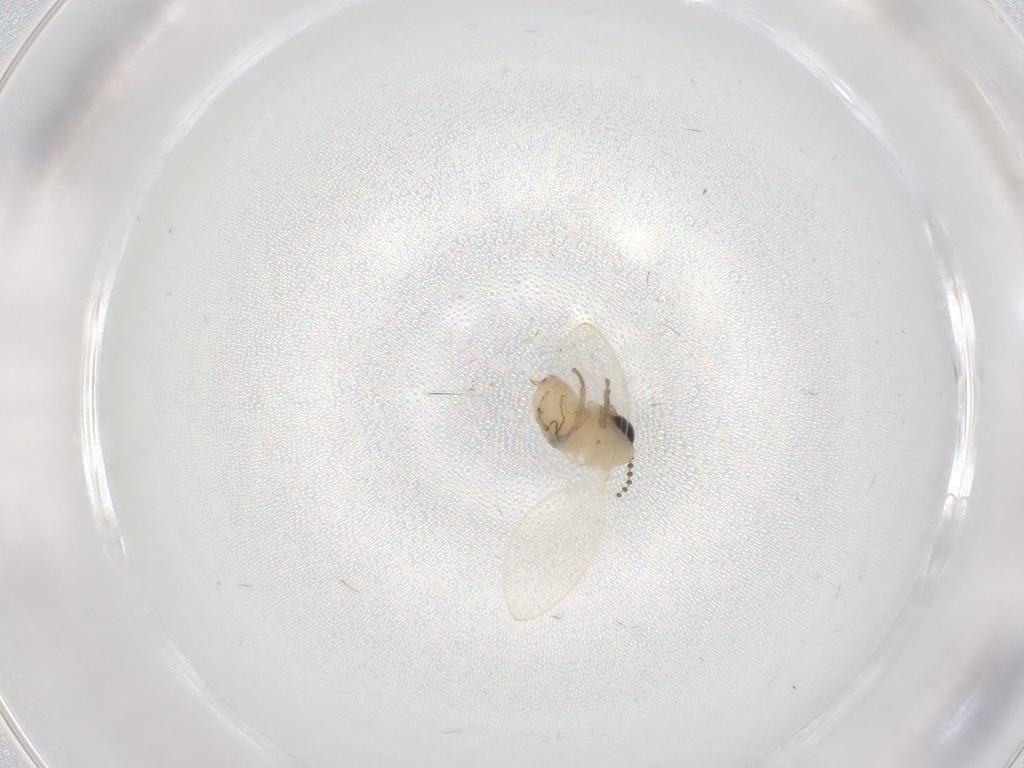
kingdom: Animalia
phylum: Arthropoda
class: Insecta
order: Diptera
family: Psychodidae
